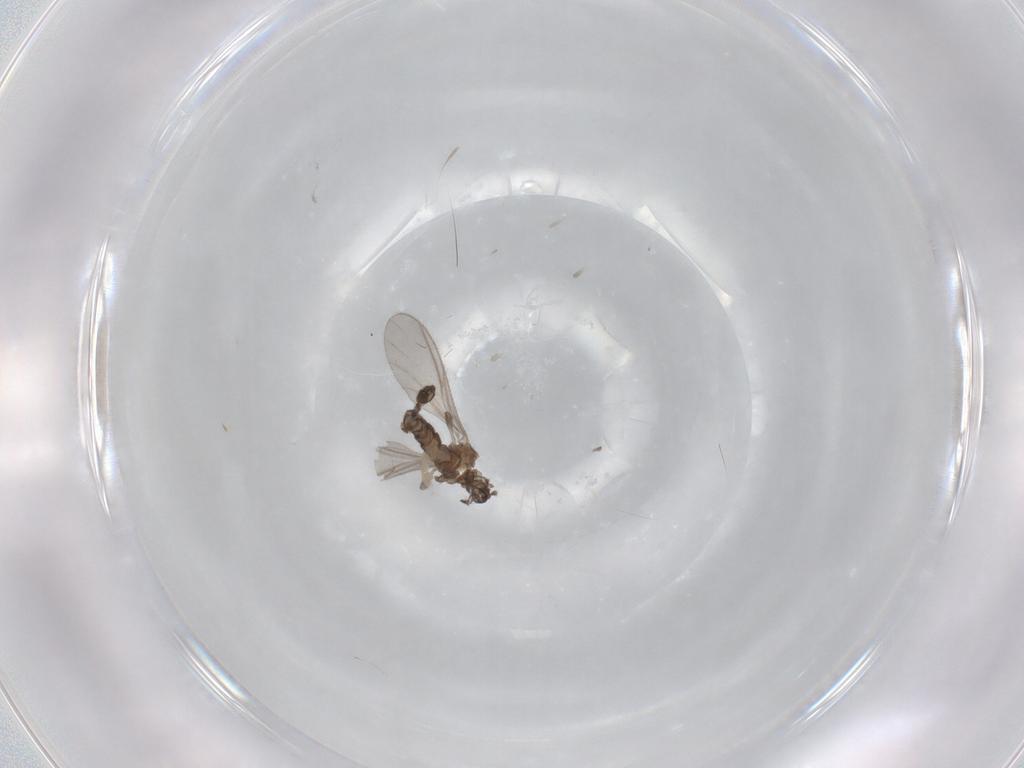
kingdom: Animalia
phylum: Arthropoda
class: Insecta
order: Diptera
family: Sciaridae
